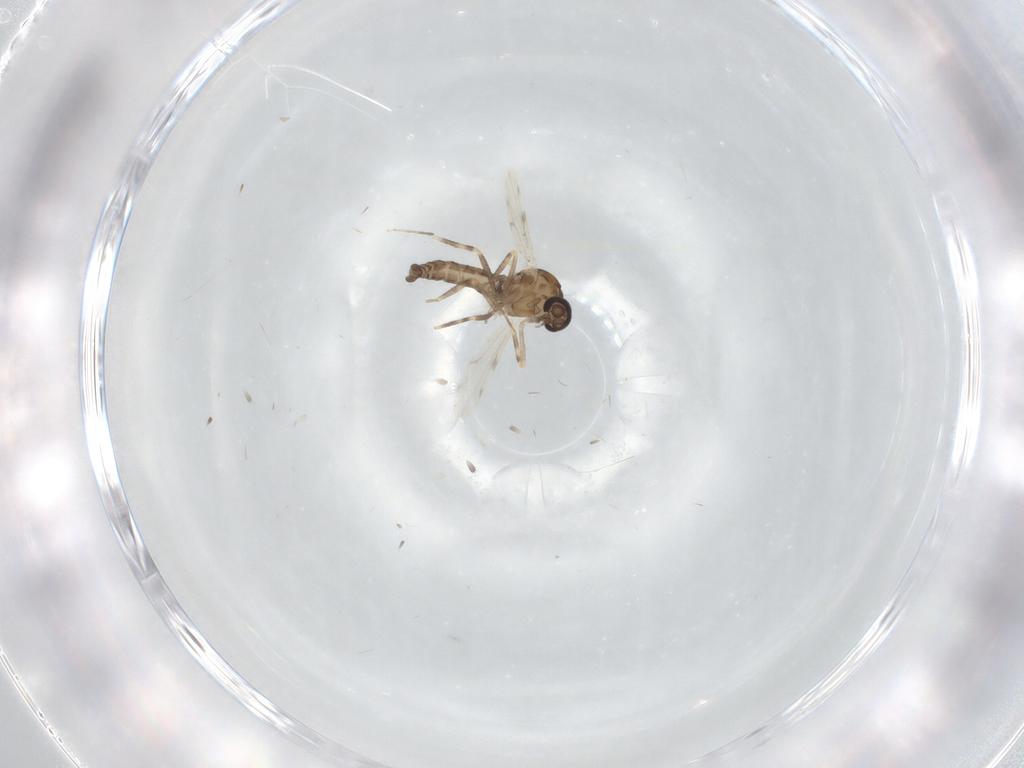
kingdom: Animalia
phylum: Arthropoda
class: Insecta
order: Diptera
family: Ceratopogonidae
